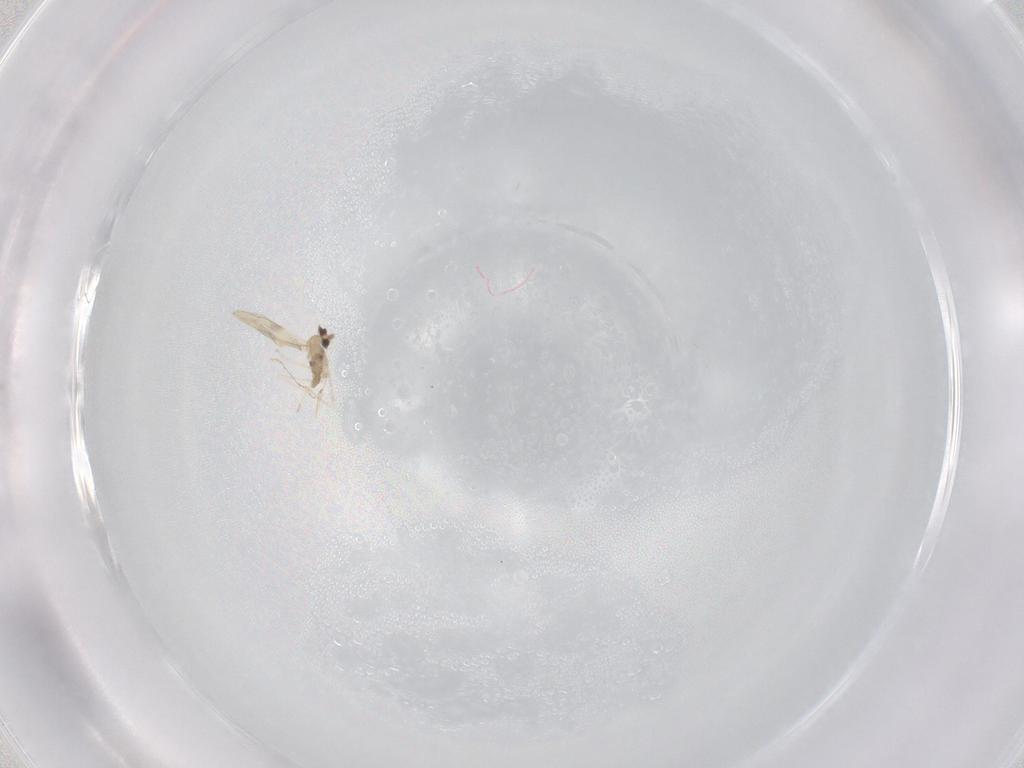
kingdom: Animalia
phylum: Arthropoda
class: Insecta
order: Diptera
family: Cecidomyiidae
